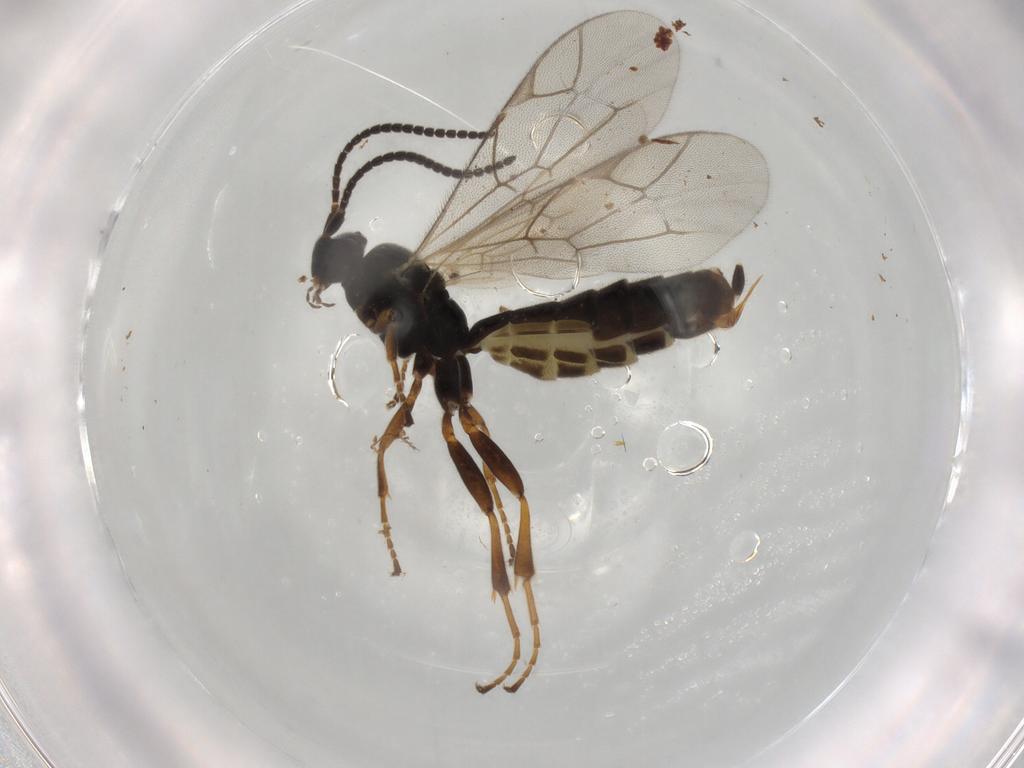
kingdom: Animalia
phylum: Arthropoda
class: Insecta
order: Hymenoptera
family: Ichneumonidae
